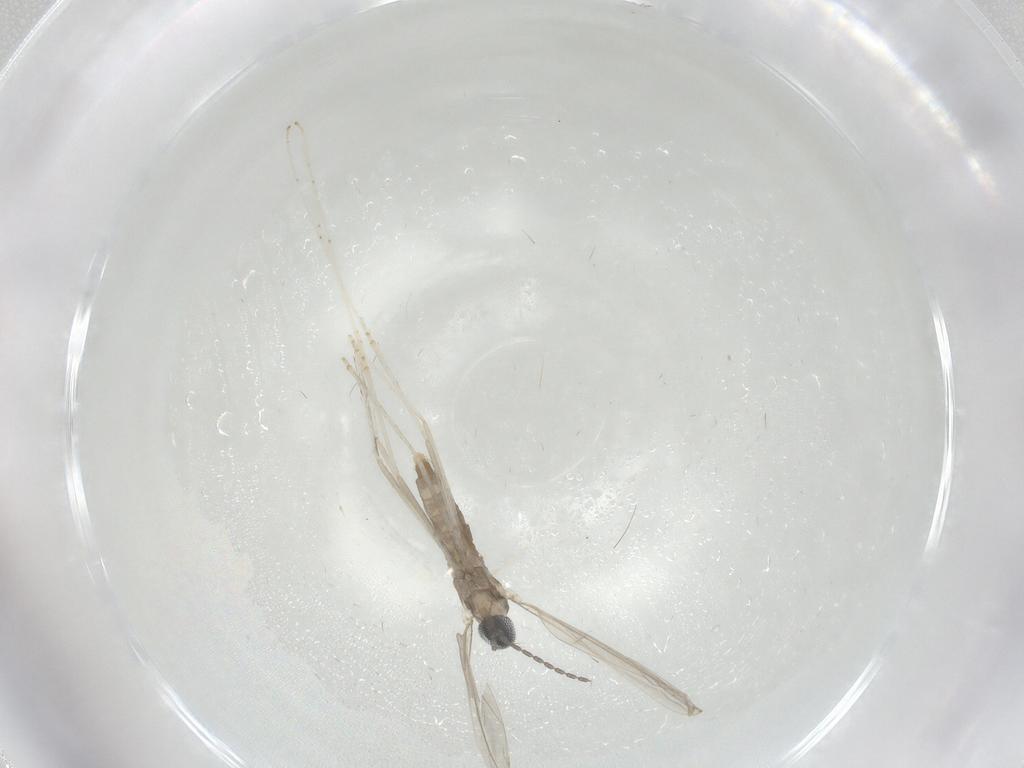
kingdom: Animalia
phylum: Arthropoda
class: Insecta
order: Diptera
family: Cecidomyiidae
